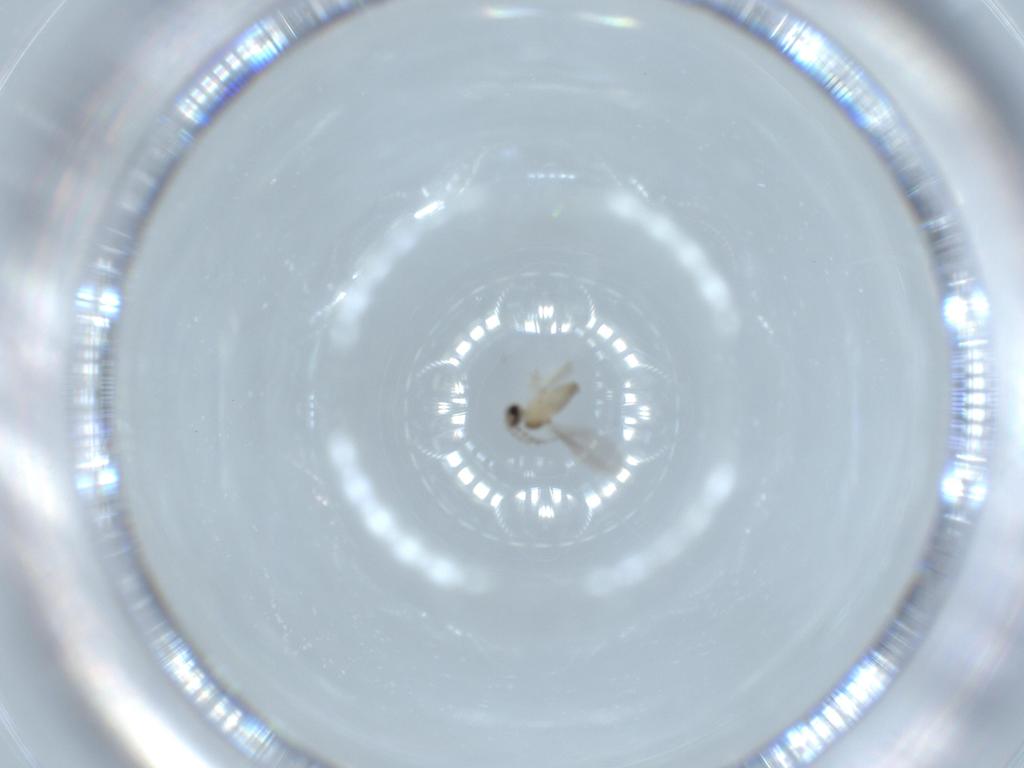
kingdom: Animalia
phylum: Arthropoda
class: Insecta
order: Diptera
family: Cecidomyiidae
